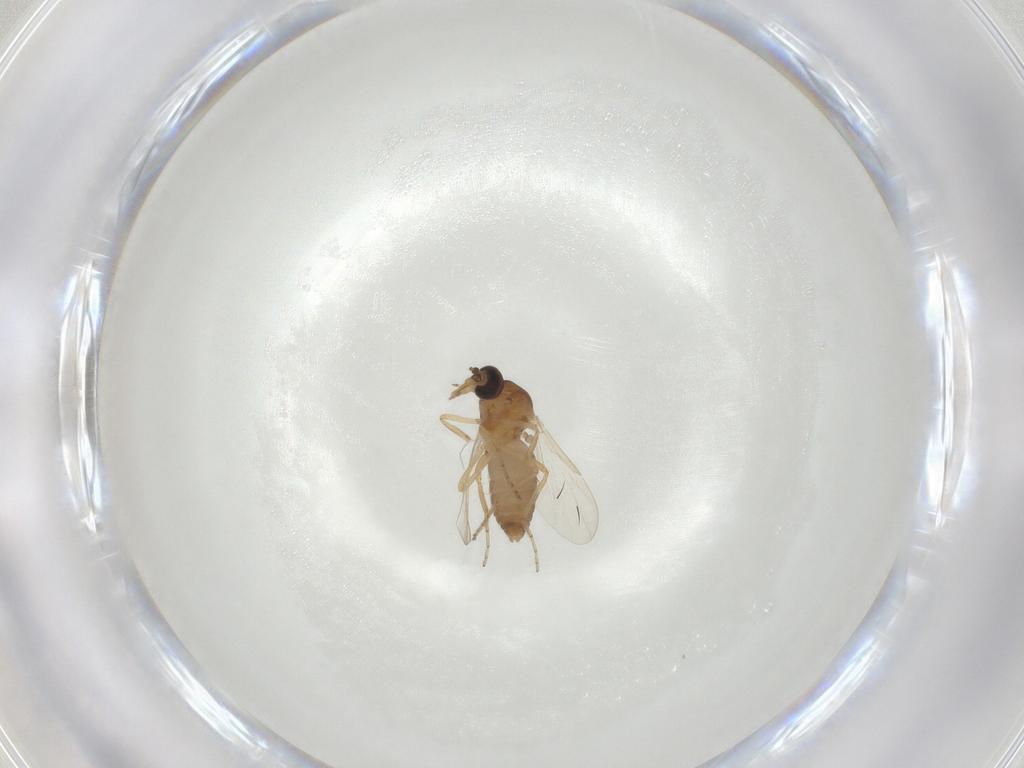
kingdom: Animalia
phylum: Arthropoda
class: Insecta
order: Diptera
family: Ceratopogonidae
